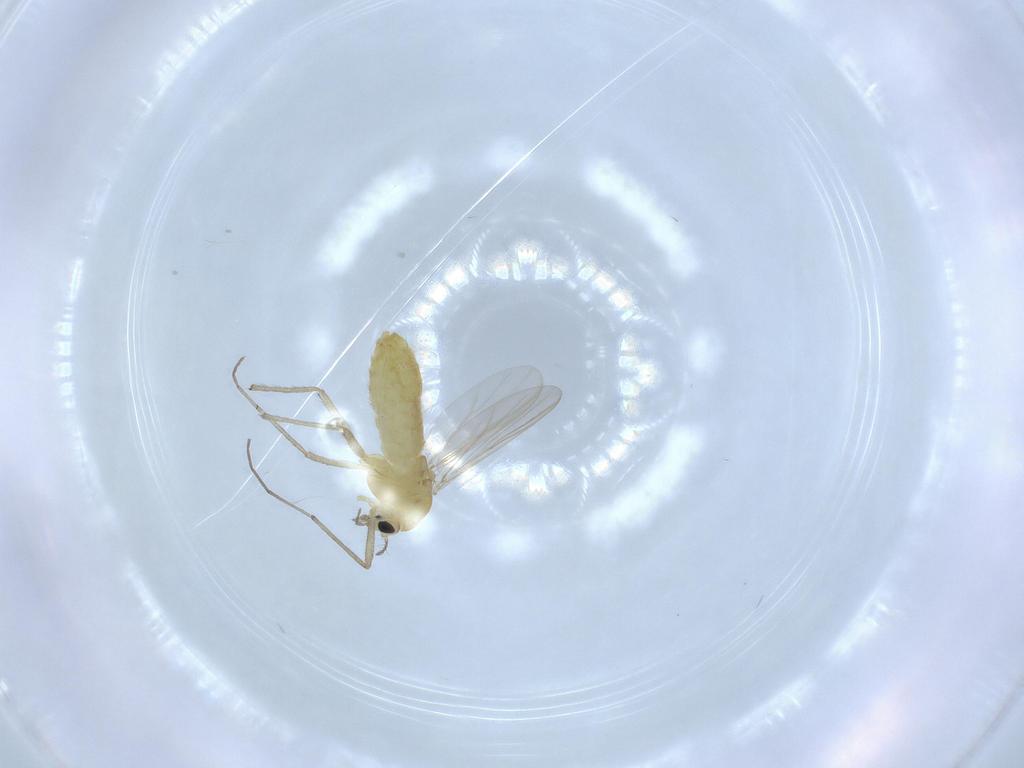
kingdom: Animalia
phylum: Arthropoda
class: Insecta
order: Diptera
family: Chironomidae
